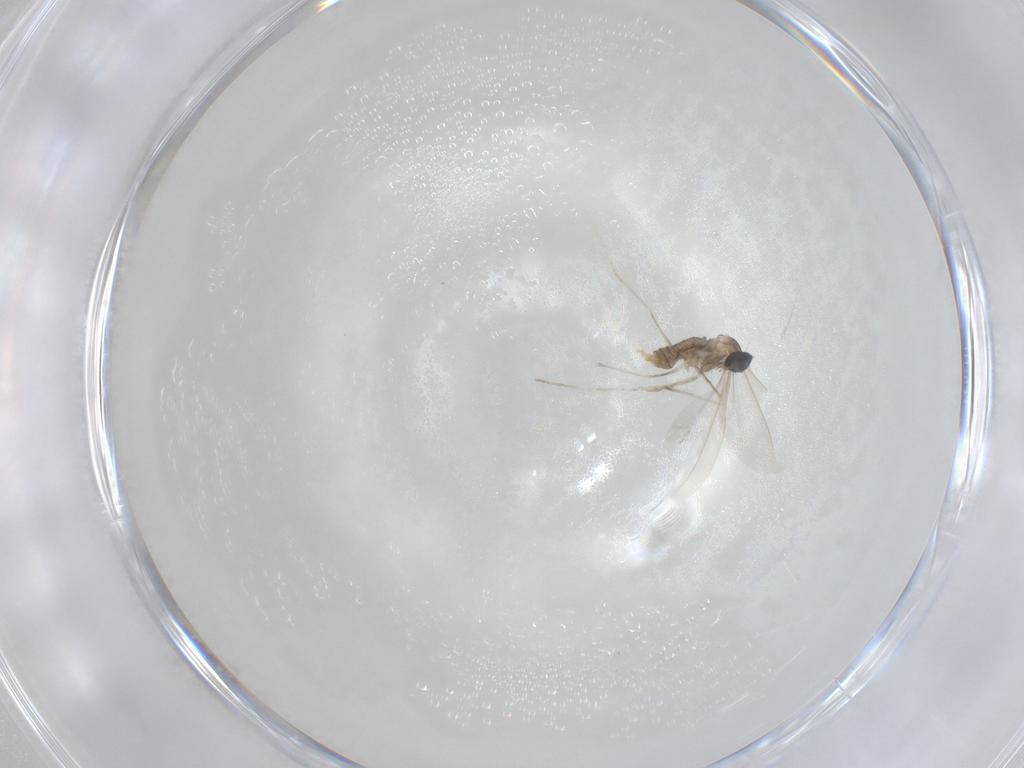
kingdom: Animalia
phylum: Arthropoda
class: Insecta
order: Diptera
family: Cecidomyiidae
